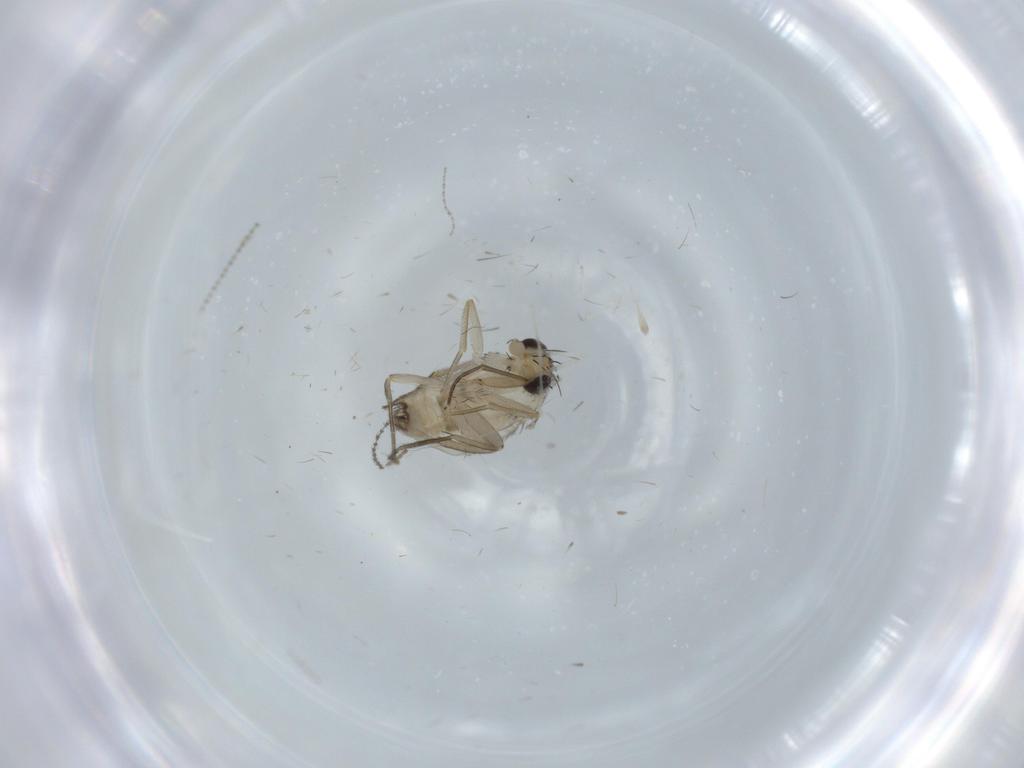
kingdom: Animalia
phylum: Arthropoda
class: Insecta
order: Diptera
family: Phoridae
